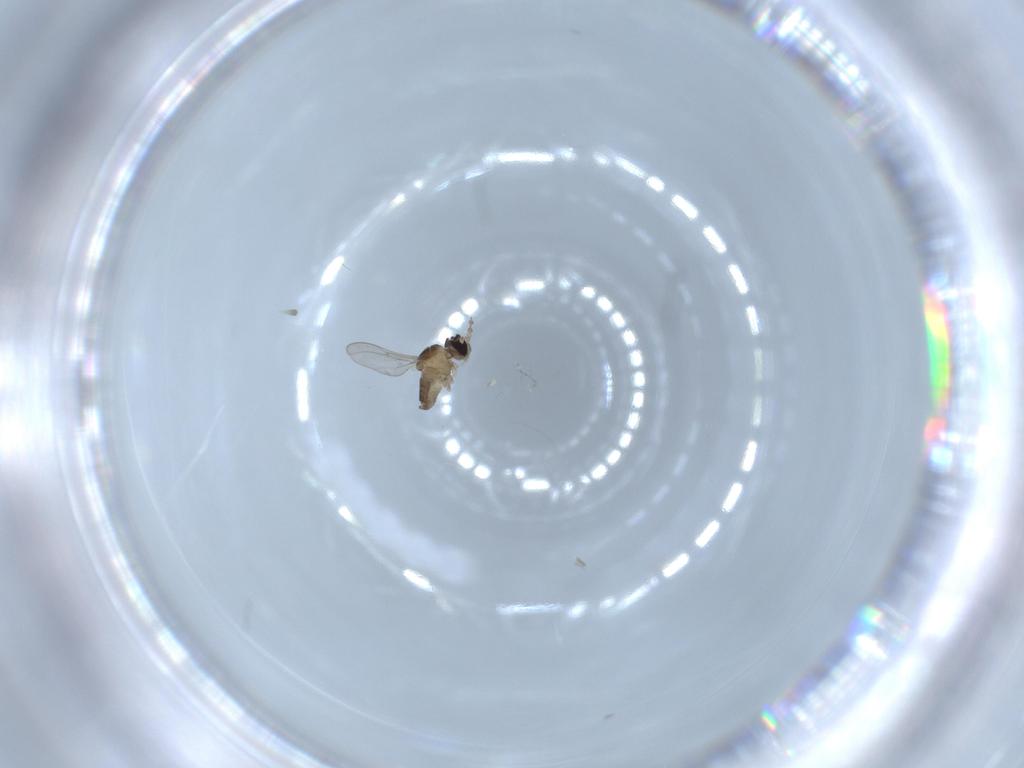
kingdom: Animalia
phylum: Arthropoda
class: Insecta
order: Diptera
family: Cecidomyiidae
